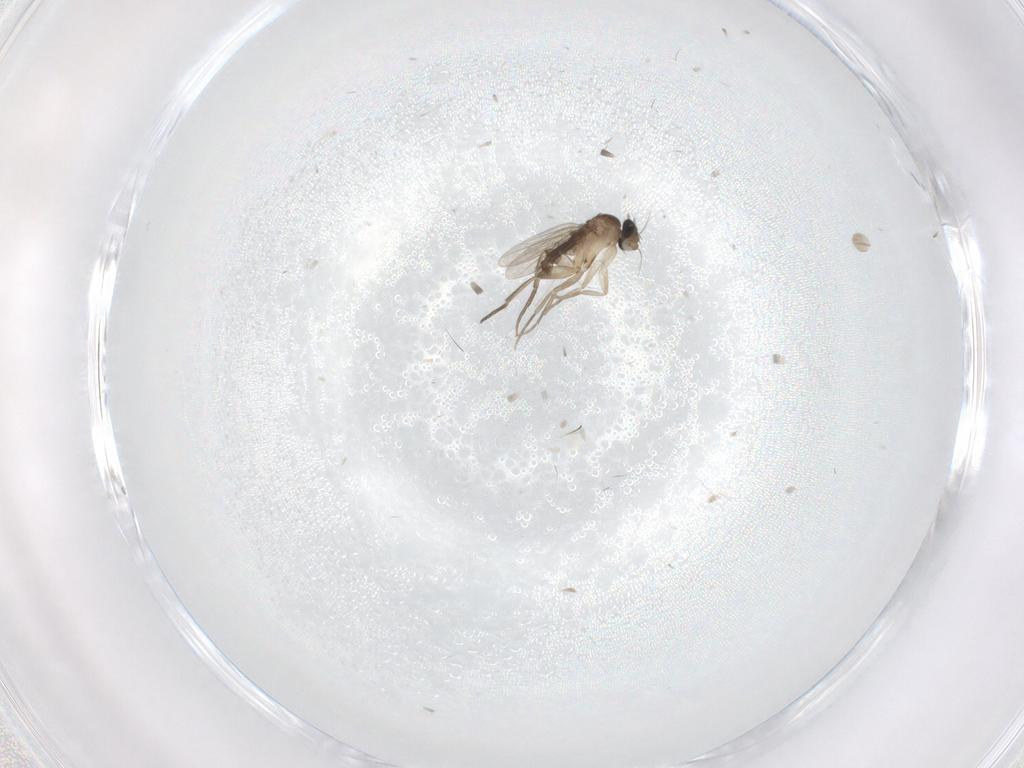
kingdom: Animalia
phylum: Arthropoda
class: Insecta
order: Diptera
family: Phoridae
